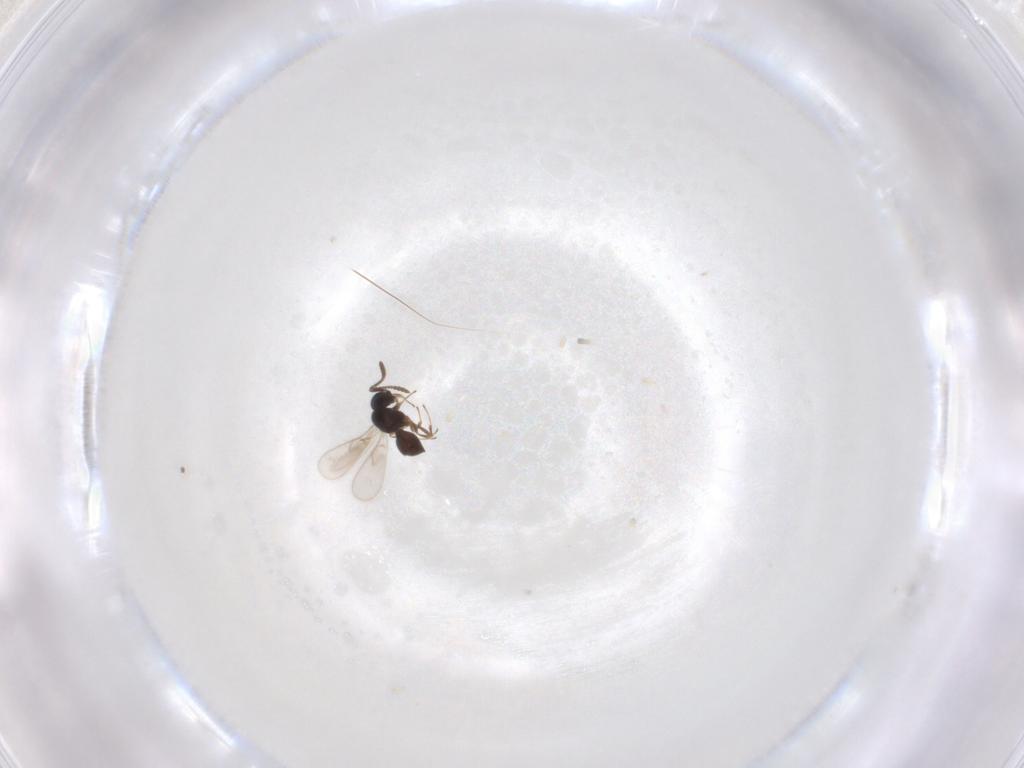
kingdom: Animalia
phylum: Arthropoda
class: Insecta
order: Hymenoptera
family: Scelionidae
